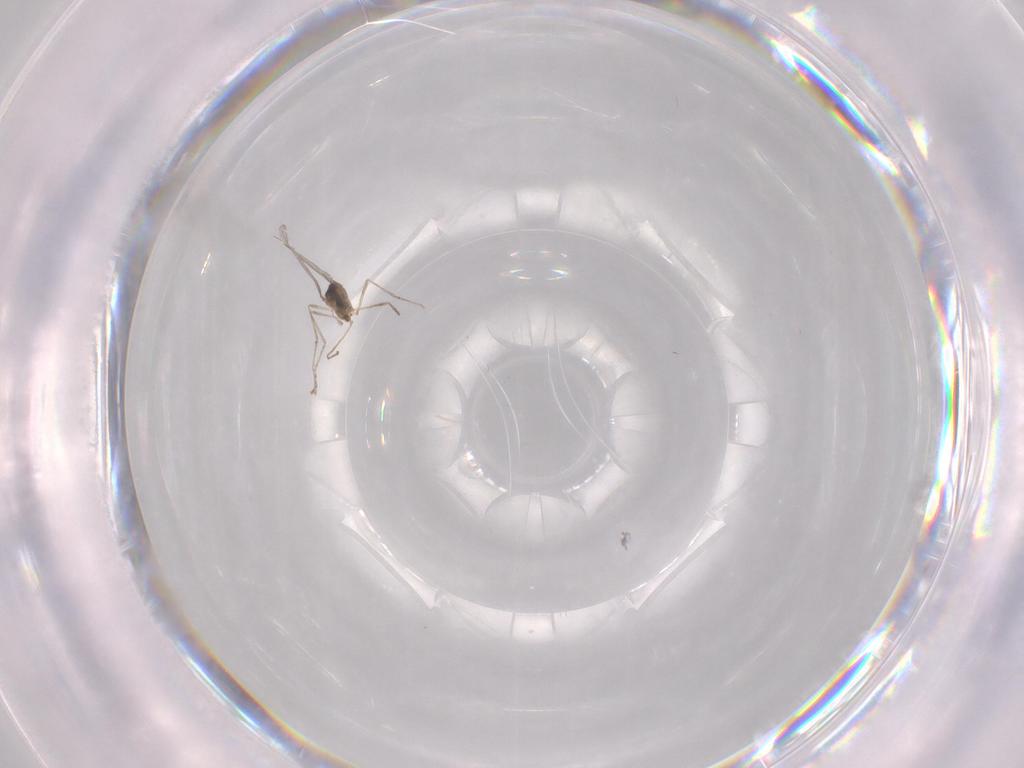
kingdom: Animalia
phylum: Arthropoda
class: Insecta
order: Diptera
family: Cecidomyiidae
